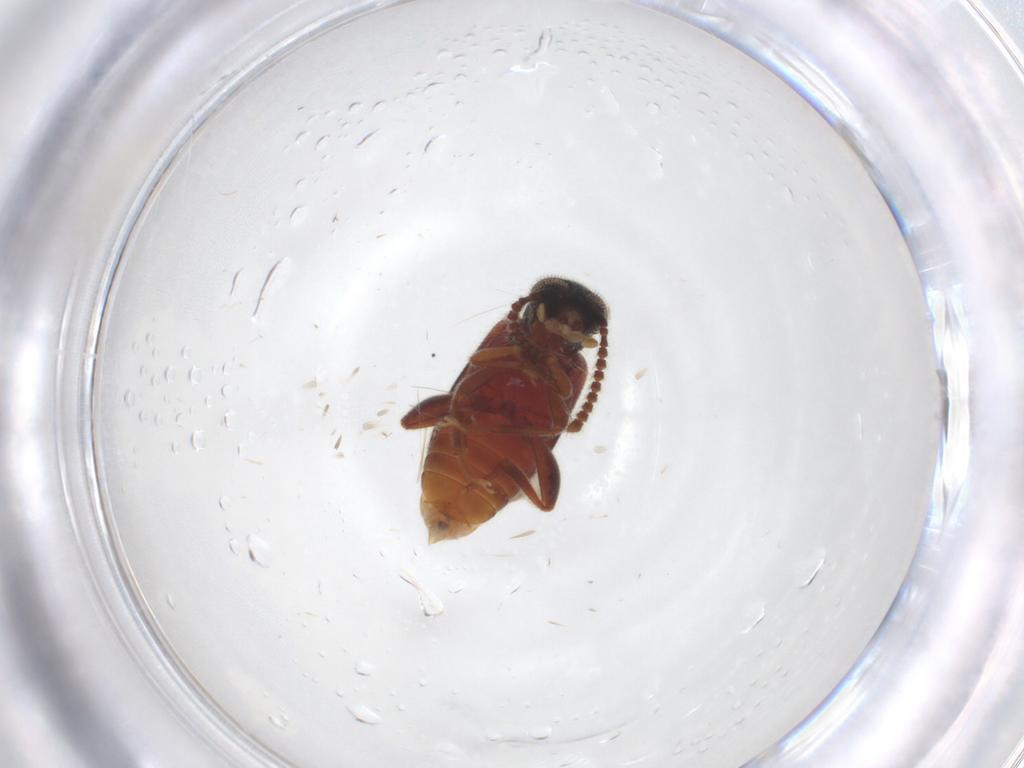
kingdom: Animalia
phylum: Arthropoda
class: Insecta
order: Coleoptera
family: Aderidae
